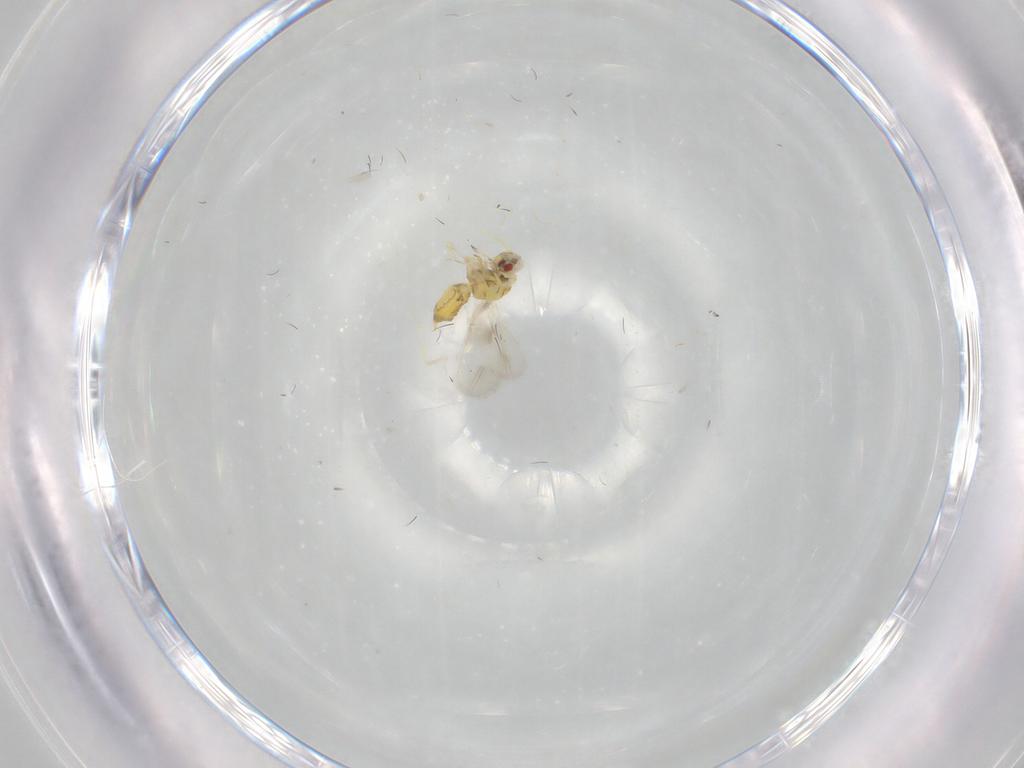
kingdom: Animalia
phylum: Arthropoda
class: Insecta
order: Hemiptera
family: Aleyrodidae
